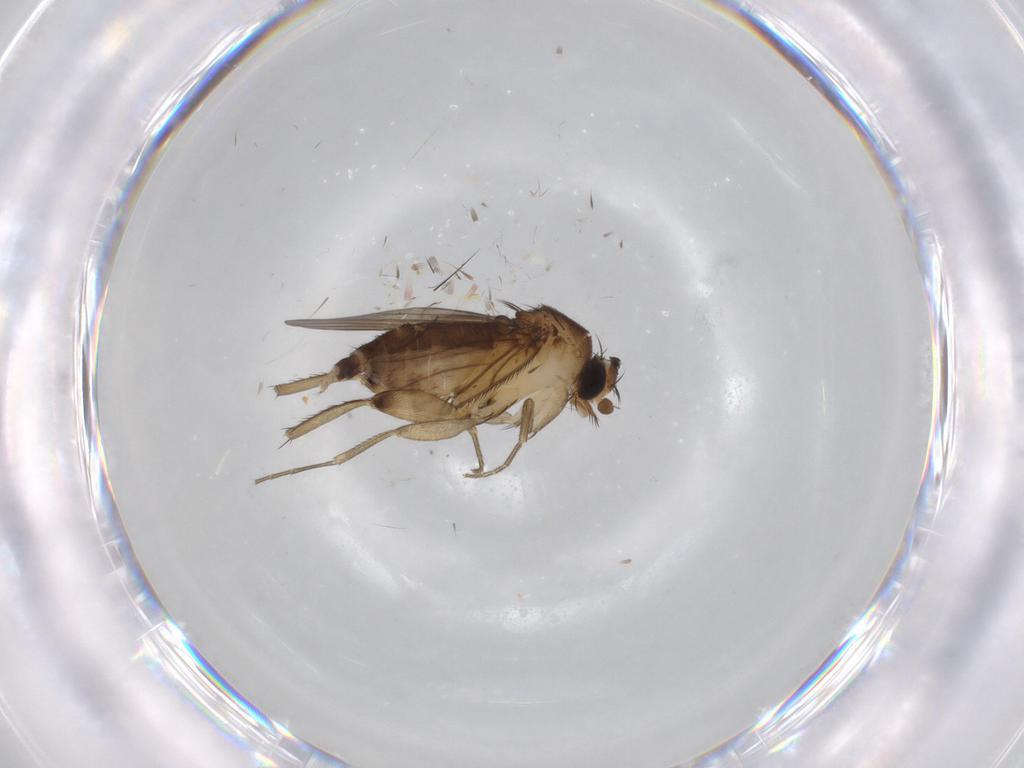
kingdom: Animalia
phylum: Arthropoda
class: Insecta
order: Diptera
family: Phoridae
